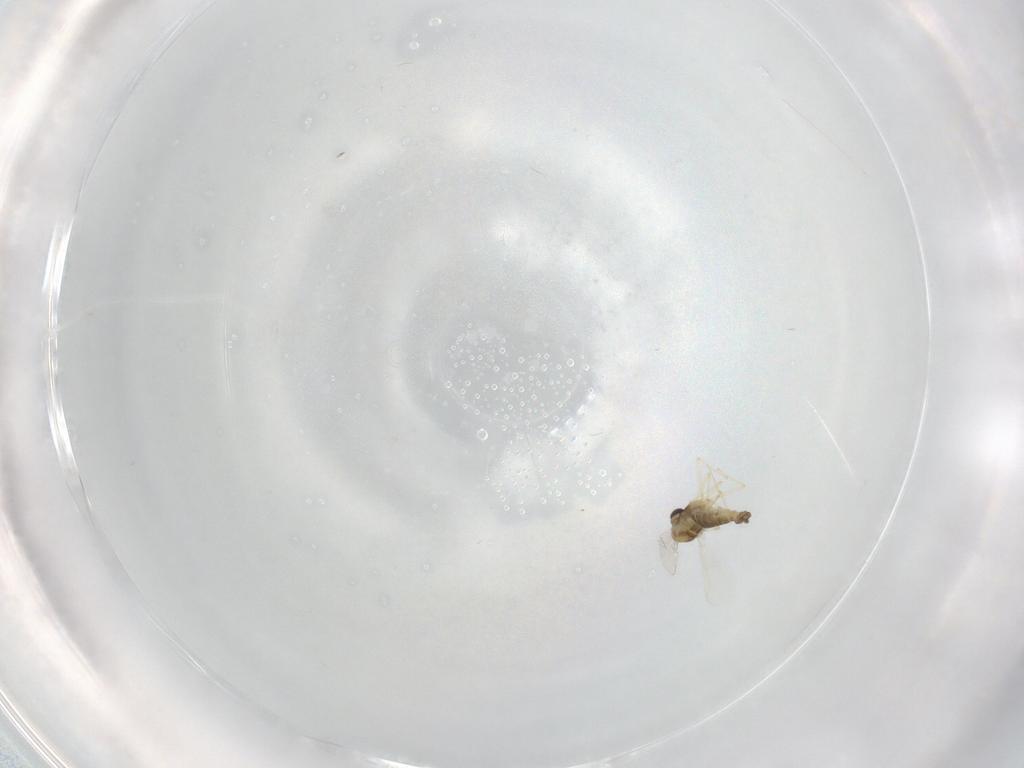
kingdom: Animalia
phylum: Arthropoda
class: Insecta
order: Diptera
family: Chironomidae
